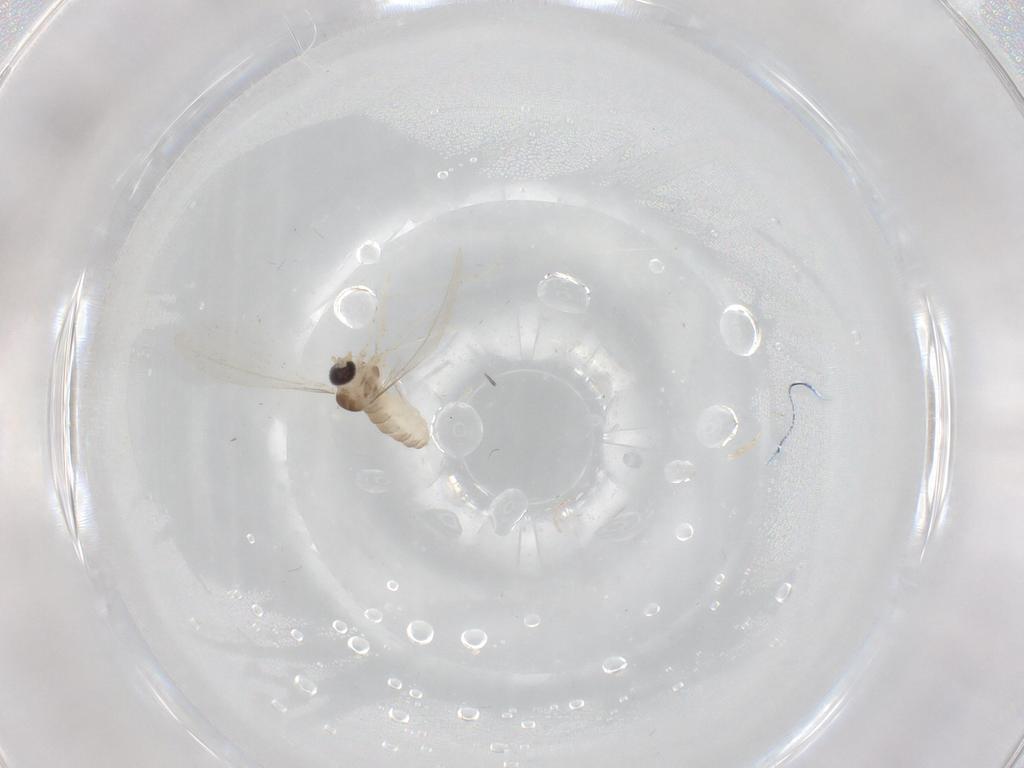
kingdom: Animalia
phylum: Arthropoda
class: Insecta
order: Diptera
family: Cecidomyiidae
